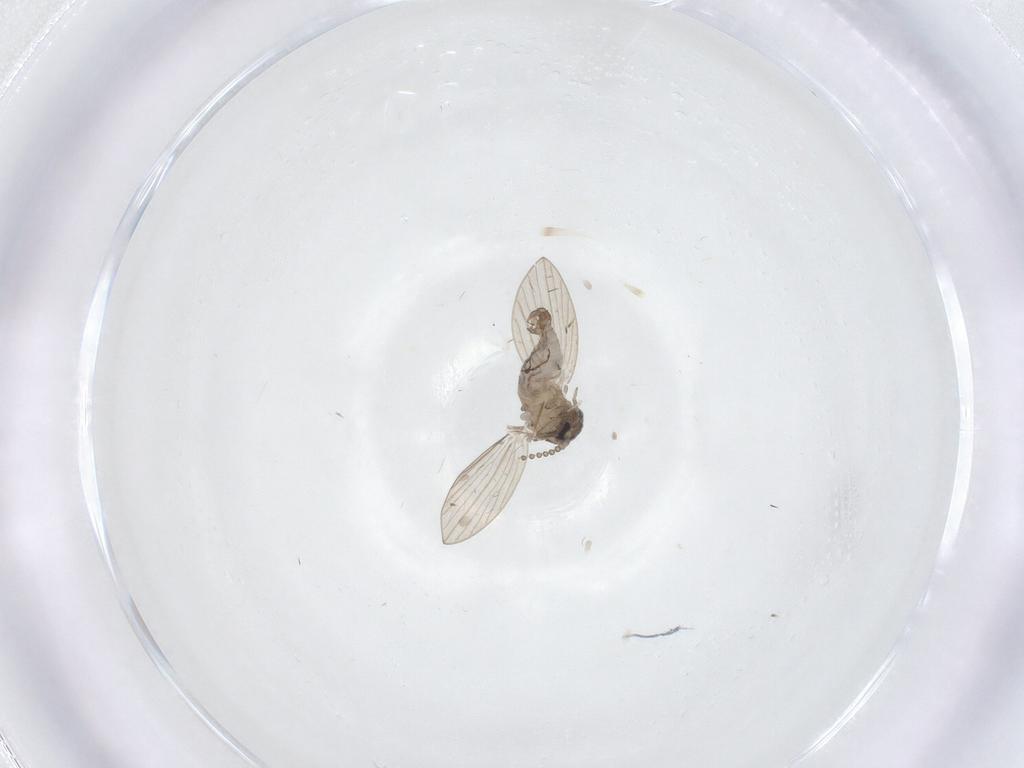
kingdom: Animalia
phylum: Arthropoda
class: Insecta
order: Diptera
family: Psychodidae
